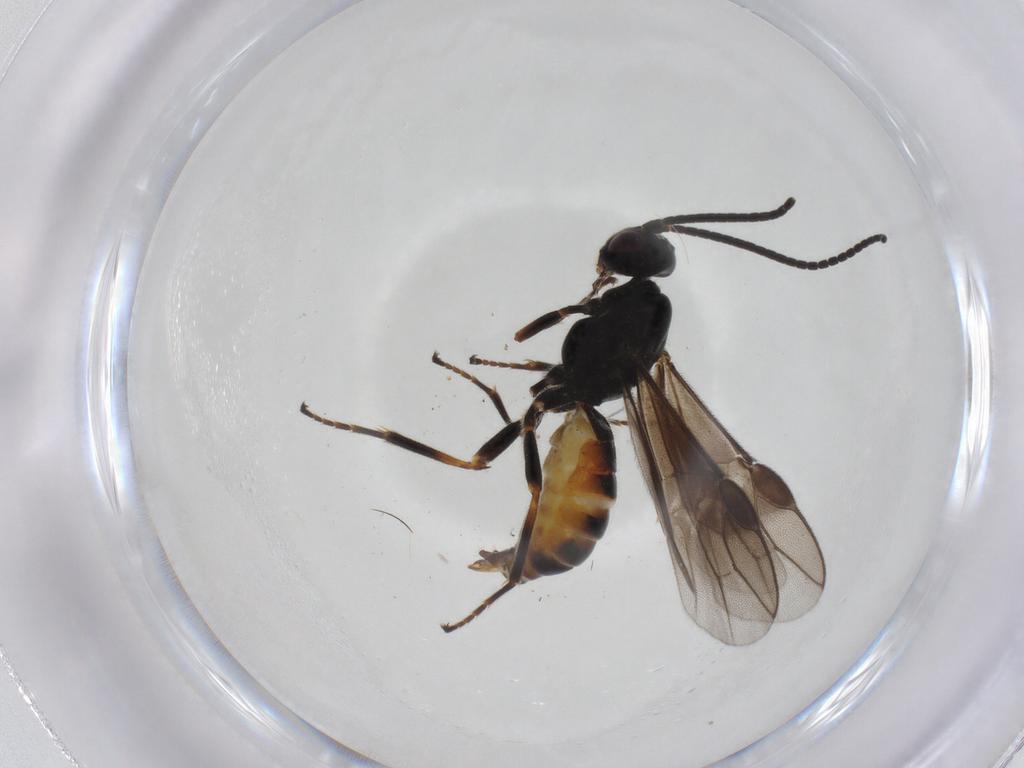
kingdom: Animalia
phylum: Arthropoda
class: Insecta
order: Hymenoptera
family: Braconidae
